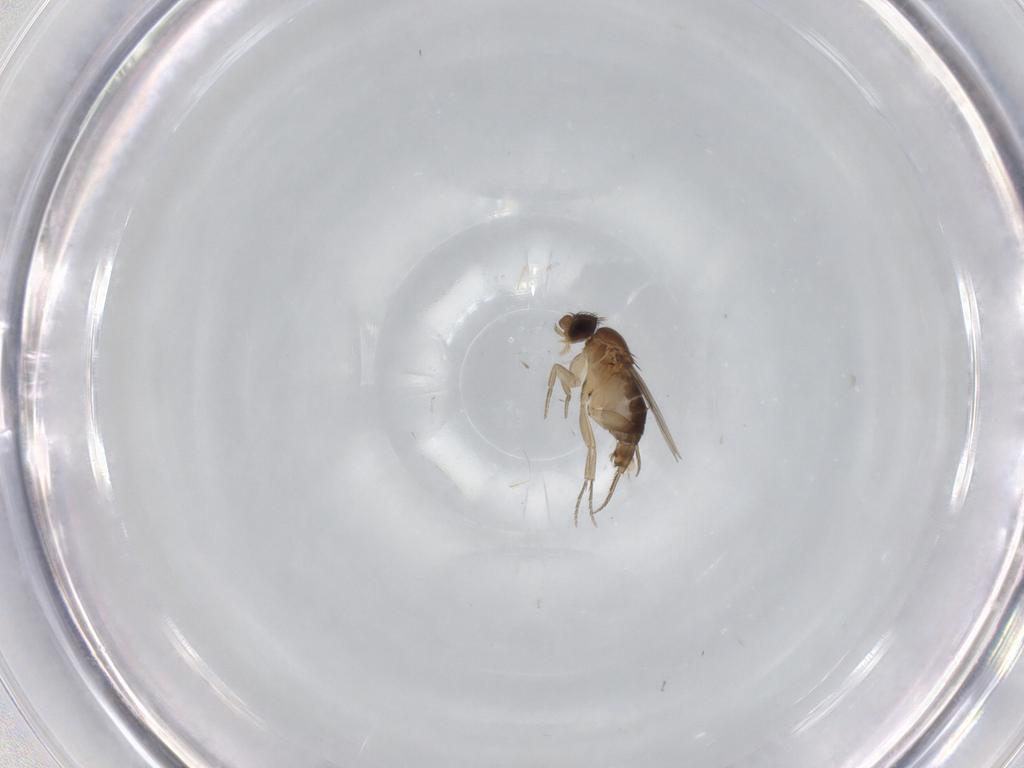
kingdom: Animalia
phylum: Arthropoda
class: Insecta
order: Diptera
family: Phoridae
